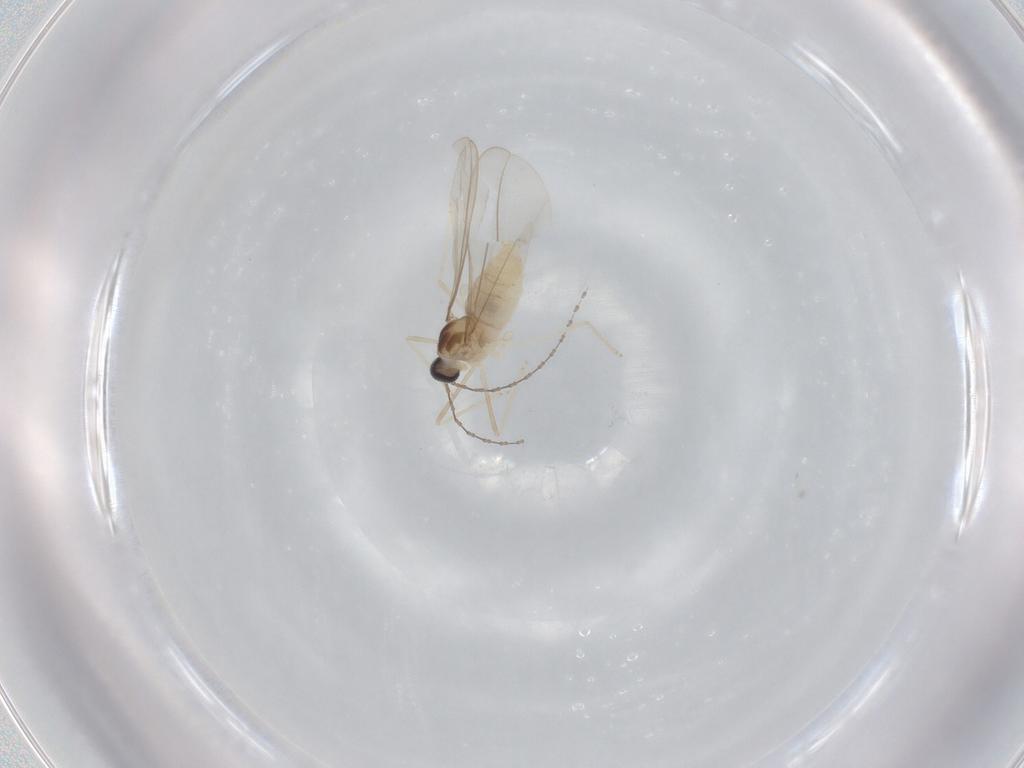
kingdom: Animalia
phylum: Arthropoda
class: Insecta
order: Diptera
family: Cecidomyiidae
